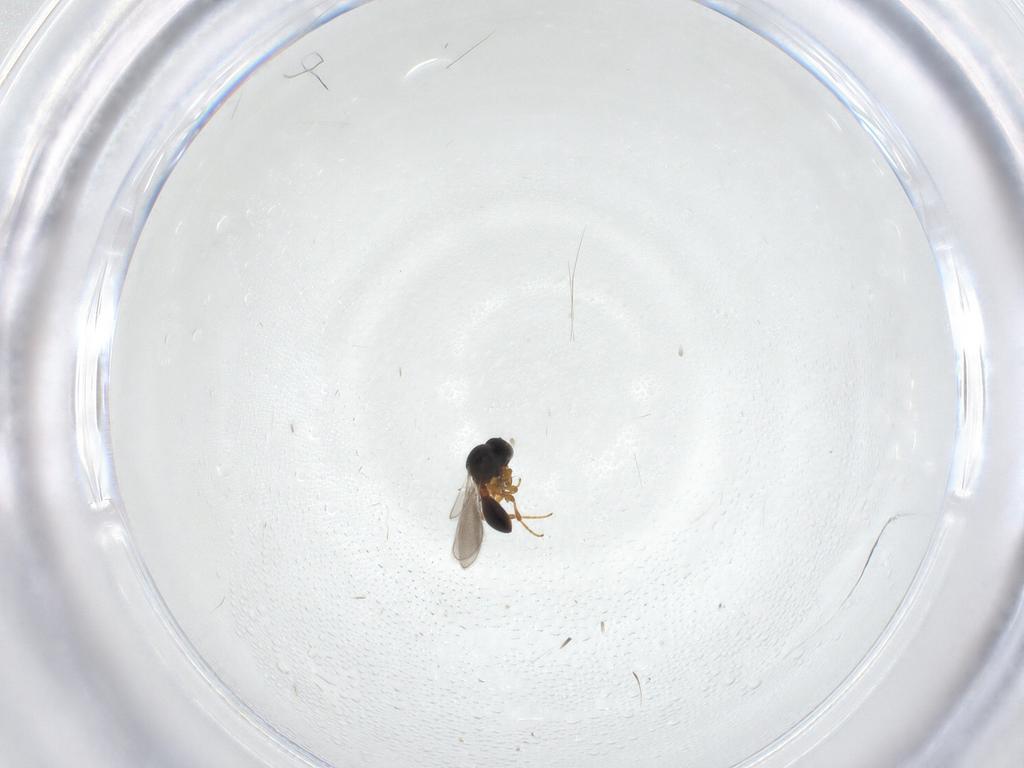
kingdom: Animalia
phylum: Arthropoda
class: Insecta
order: Hymenoptera
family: Platygastridae
